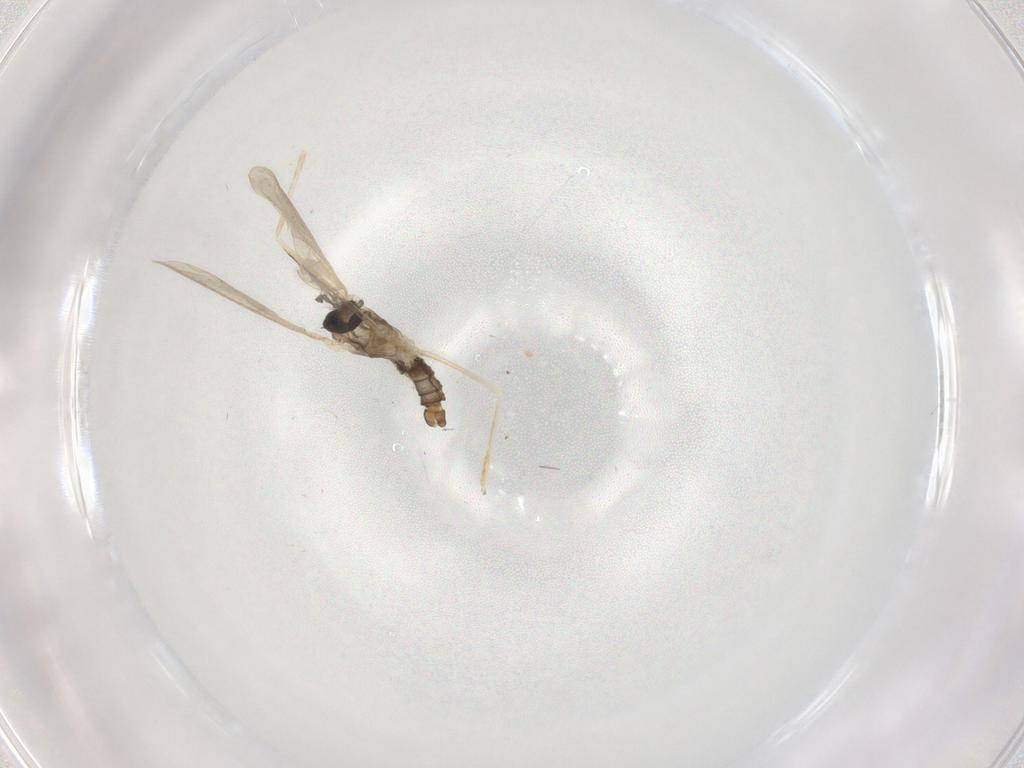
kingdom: Animalia
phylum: Arthropoda
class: Insecta
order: Diptera
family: Cecidomyiidae
